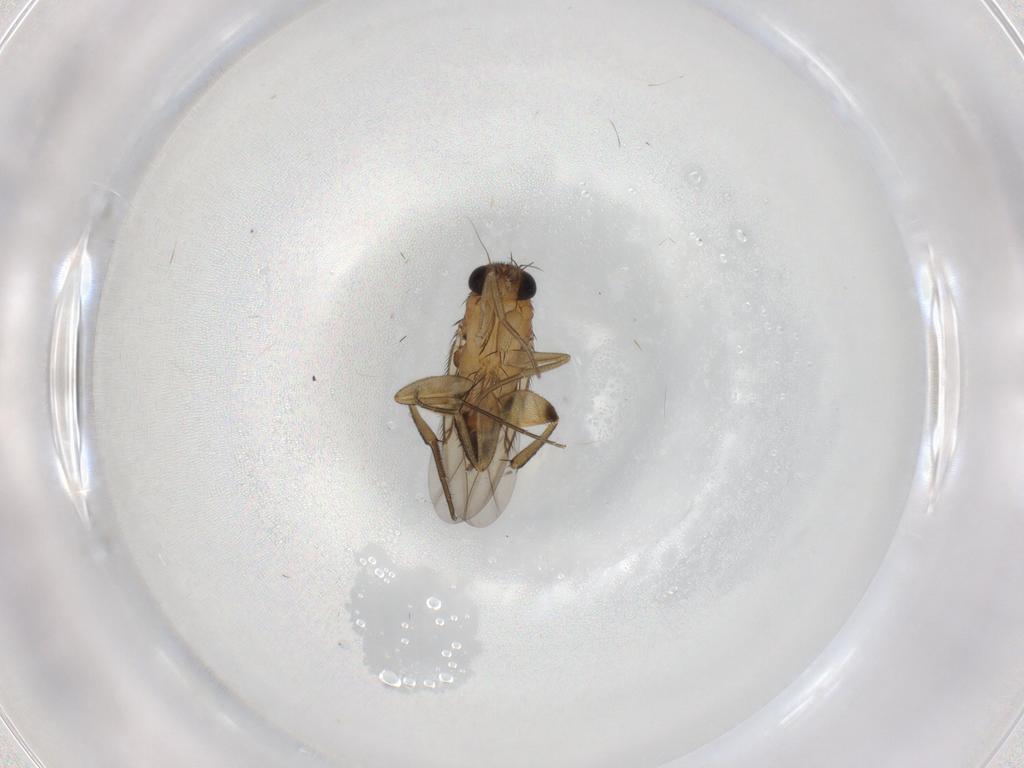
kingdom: Animalia
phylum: Arthropoda
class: Insecta
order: Diptera
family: Phoridae
